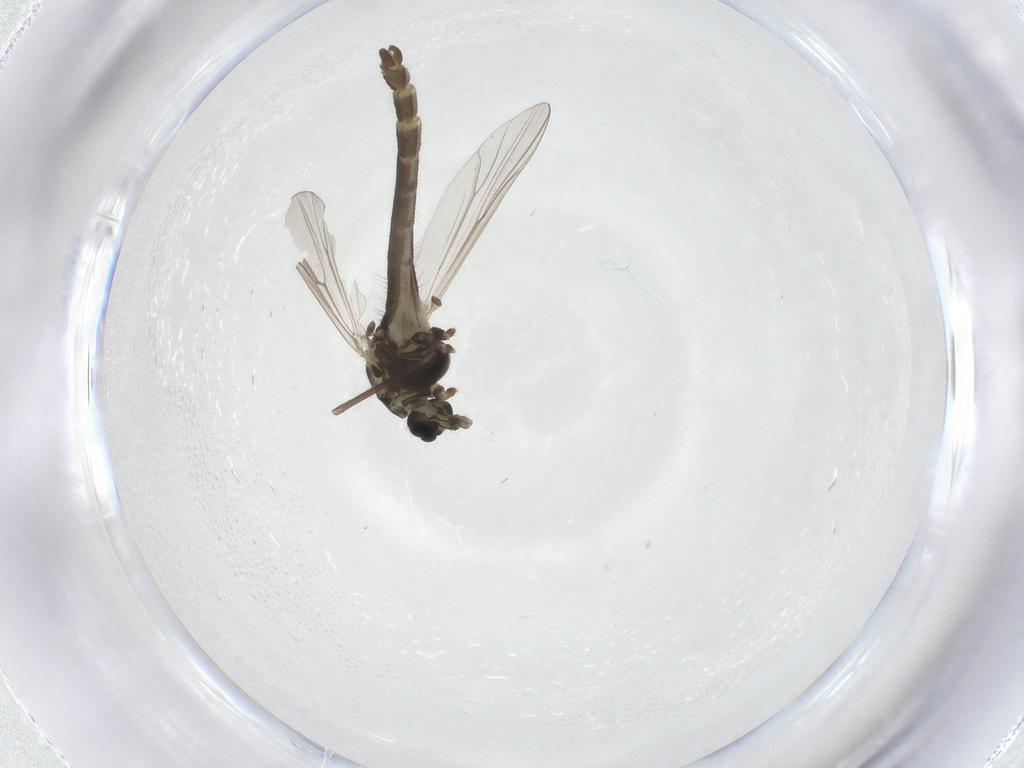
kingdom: Animalia
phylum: Arthropoda
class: Insecta
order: Diptera
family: Chironomidae
